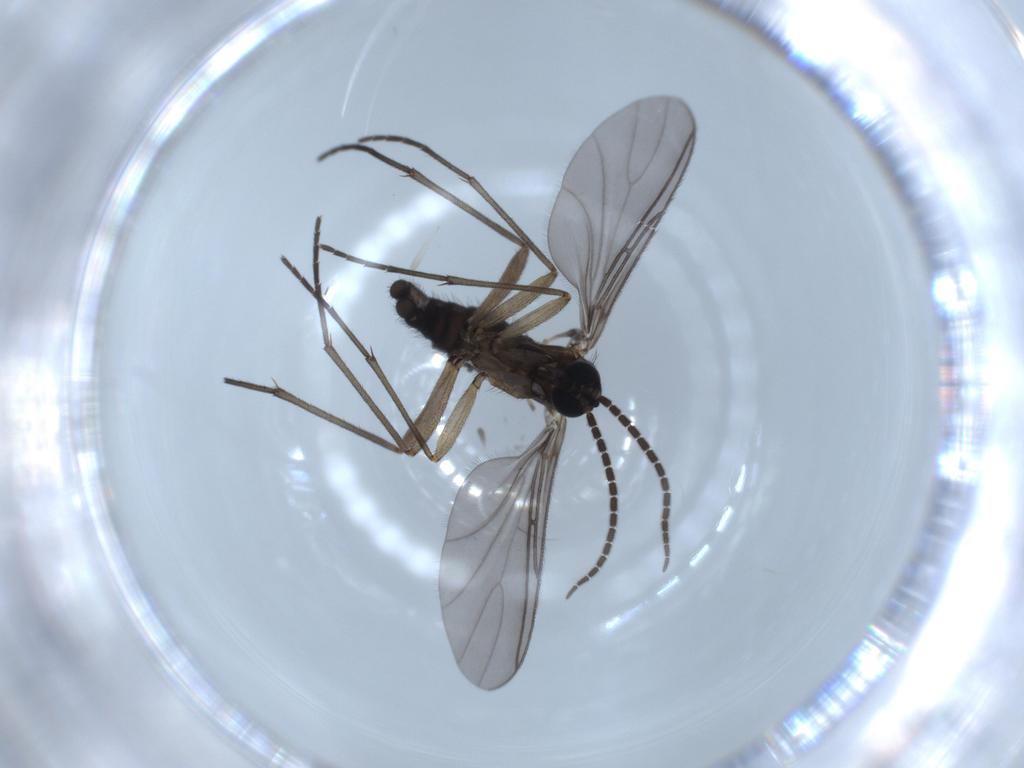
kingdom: Animalia
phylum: Arthropoda
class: Insecta
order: Diptera
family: Sciaridae
